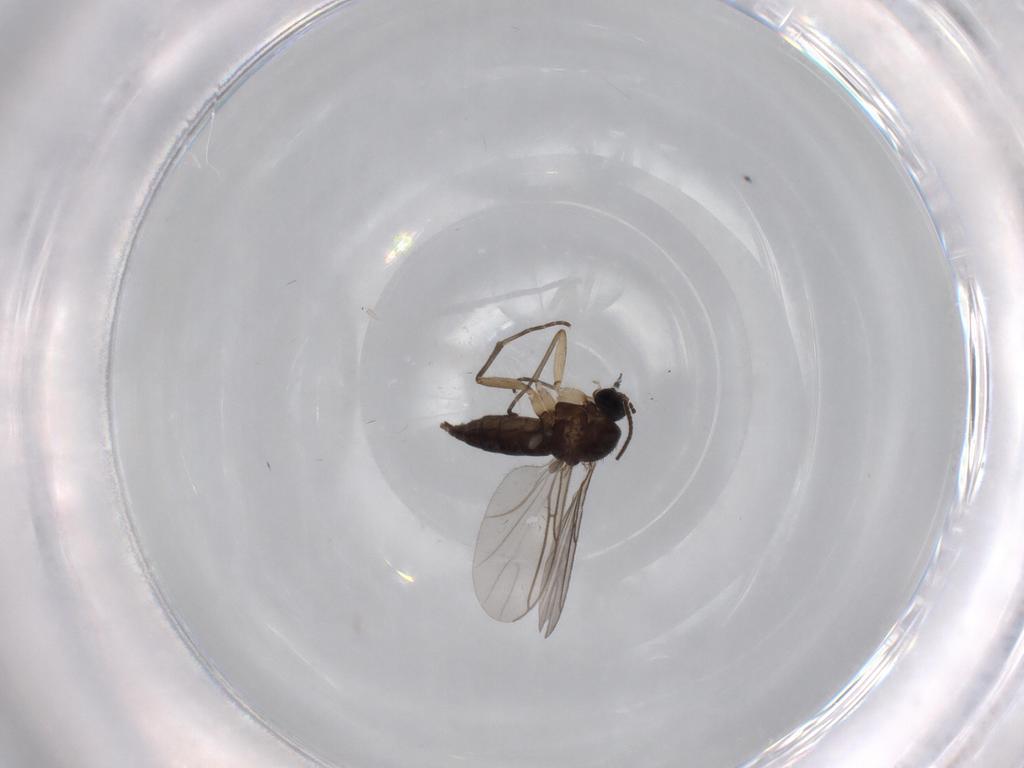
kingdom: Animalia
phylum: Arthropoda
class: Insecta
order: Diptera
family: Sciaridae
